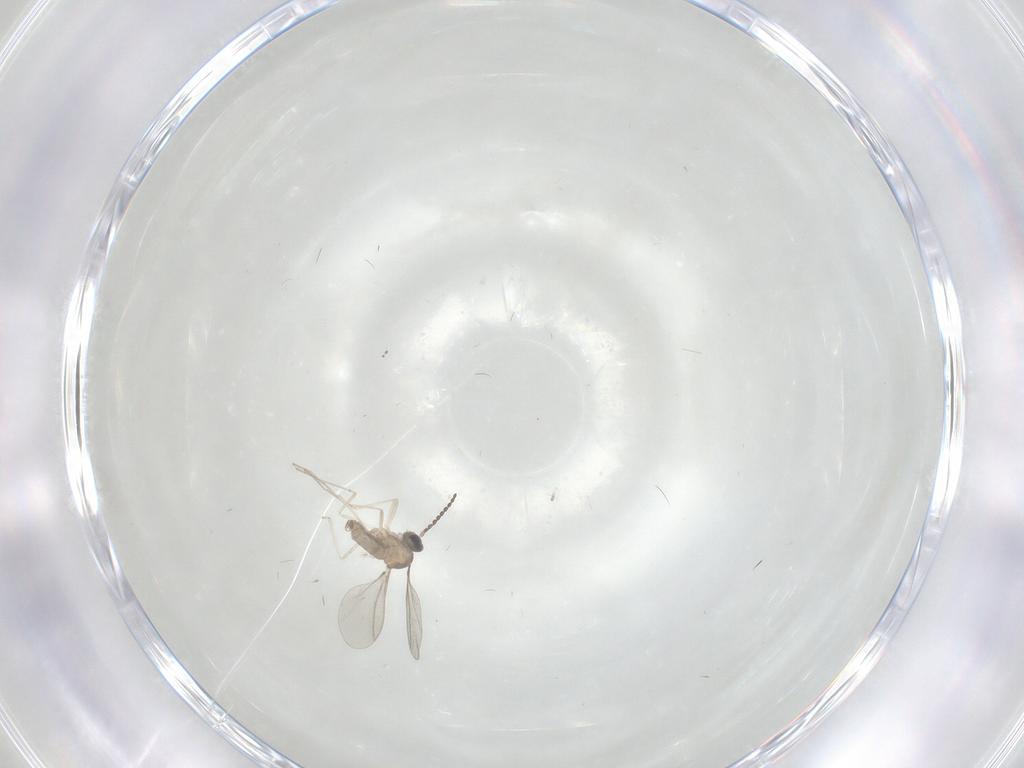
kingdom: Animalia
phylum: Arthropoda
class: Insecta
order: Diptera
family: Cecidomyiidae
